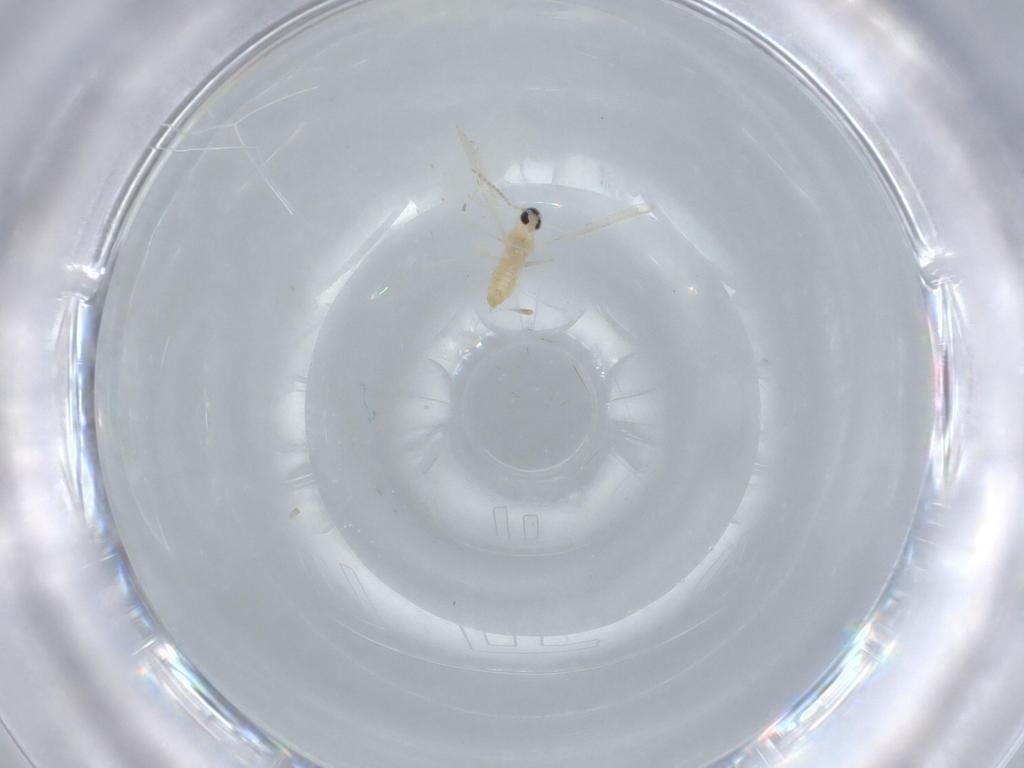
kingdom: Animalia
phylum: Arthropoda
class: Insecta
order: Diptera
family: Cecidomyiidae
